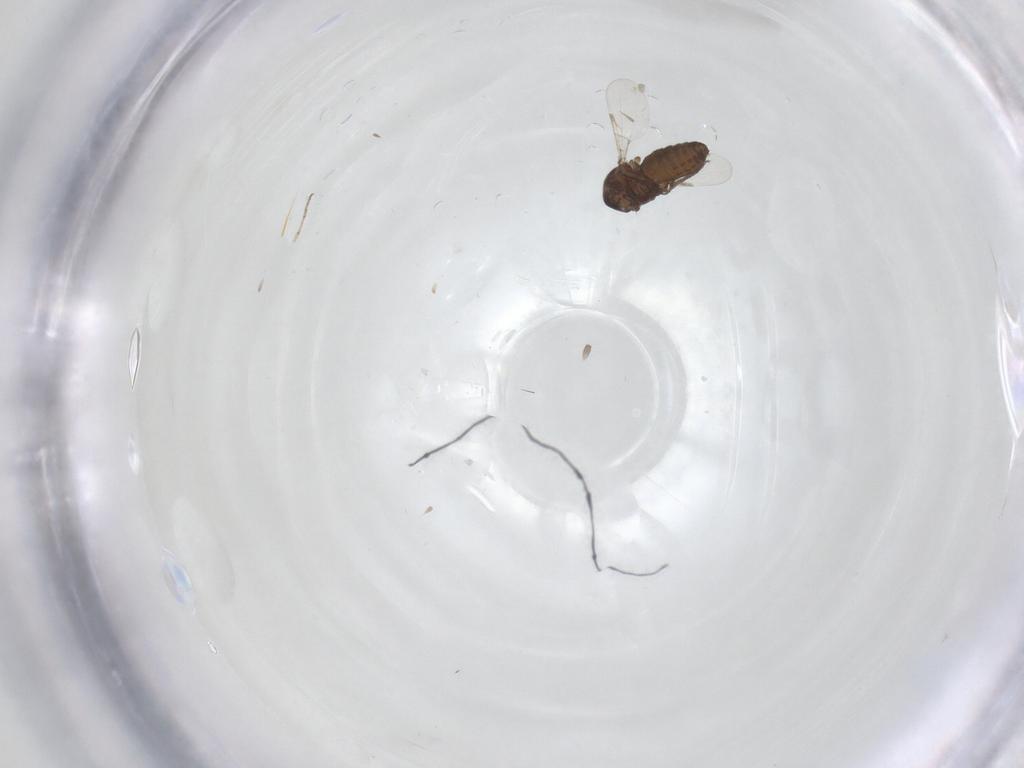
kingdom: Animalia
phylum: Arthropoda
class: Insecta
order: Diptera
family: Ceratopogonidae
